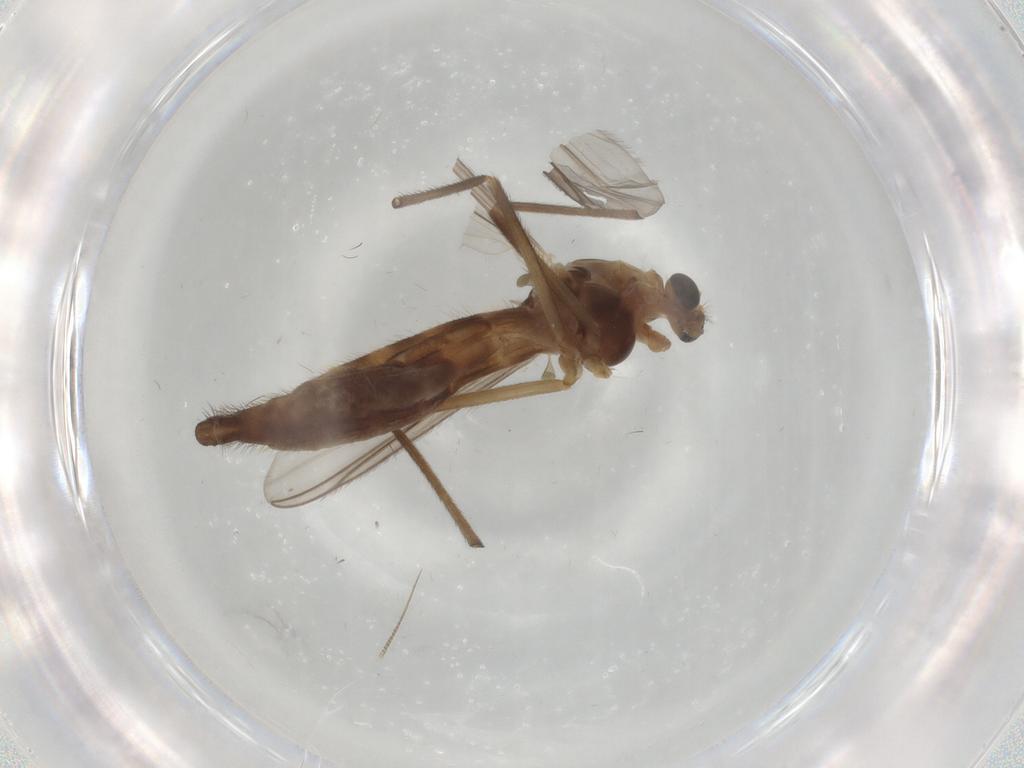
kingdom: Animalia
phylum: Arthropoda
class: Insecta
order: Diptera
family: Chironomidae
